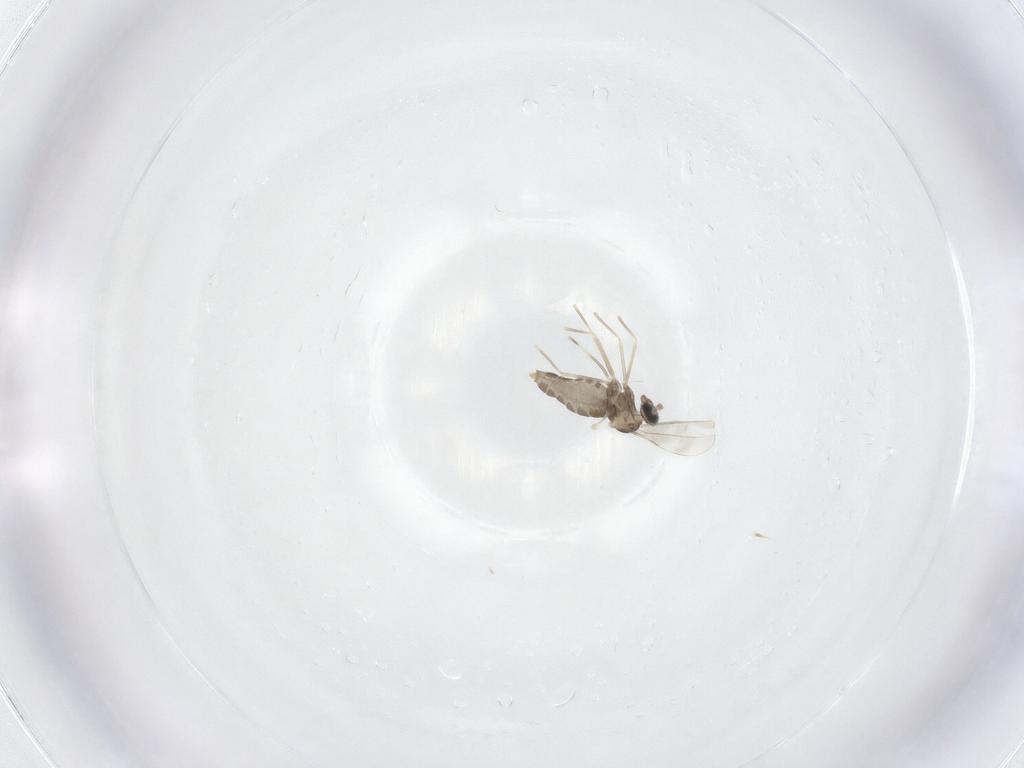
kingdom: Animalia
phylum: Arthropoda
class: Insecta
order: Diptera
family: Cecidomyiidae
